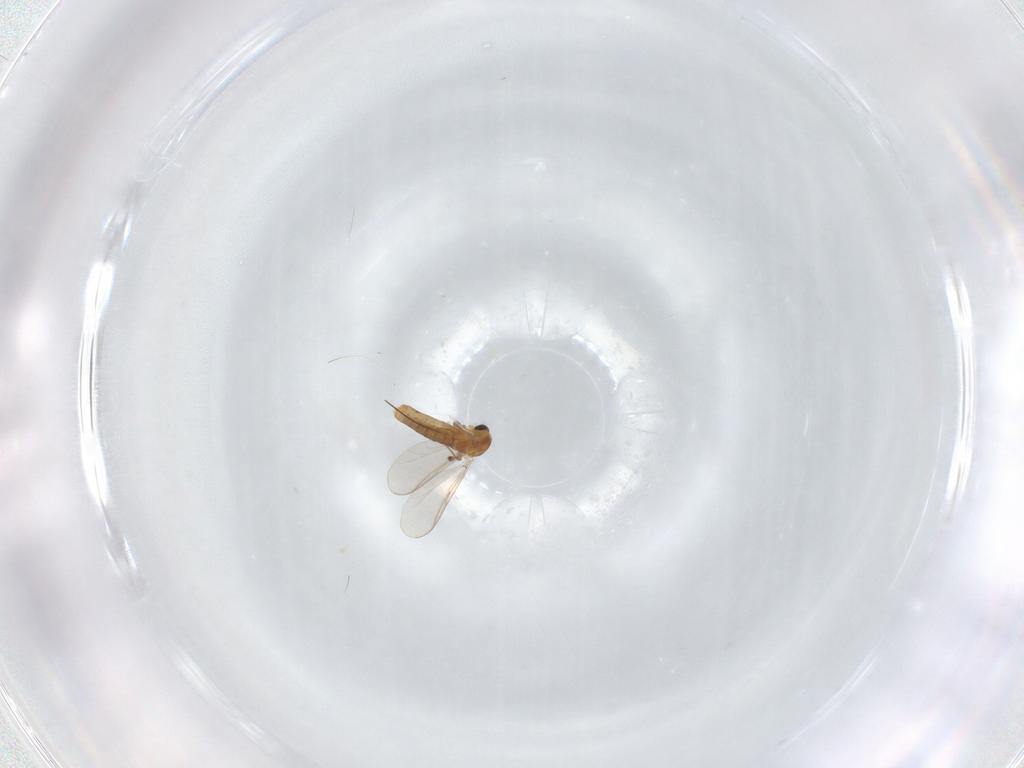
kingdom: Animalia
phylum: Arthropoda
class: Insecta
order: Diptera
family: Chironomidae
